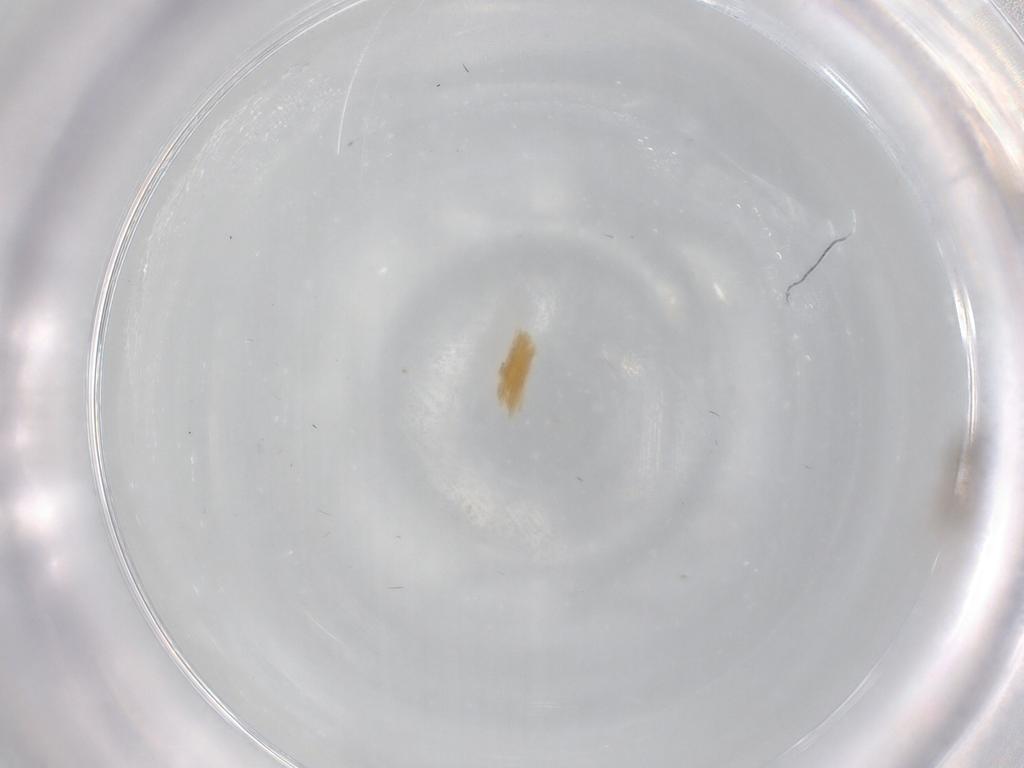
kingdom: Animalia
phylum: Arthropoda
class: Insecta
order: Diptera
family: Cecidomyiidae
